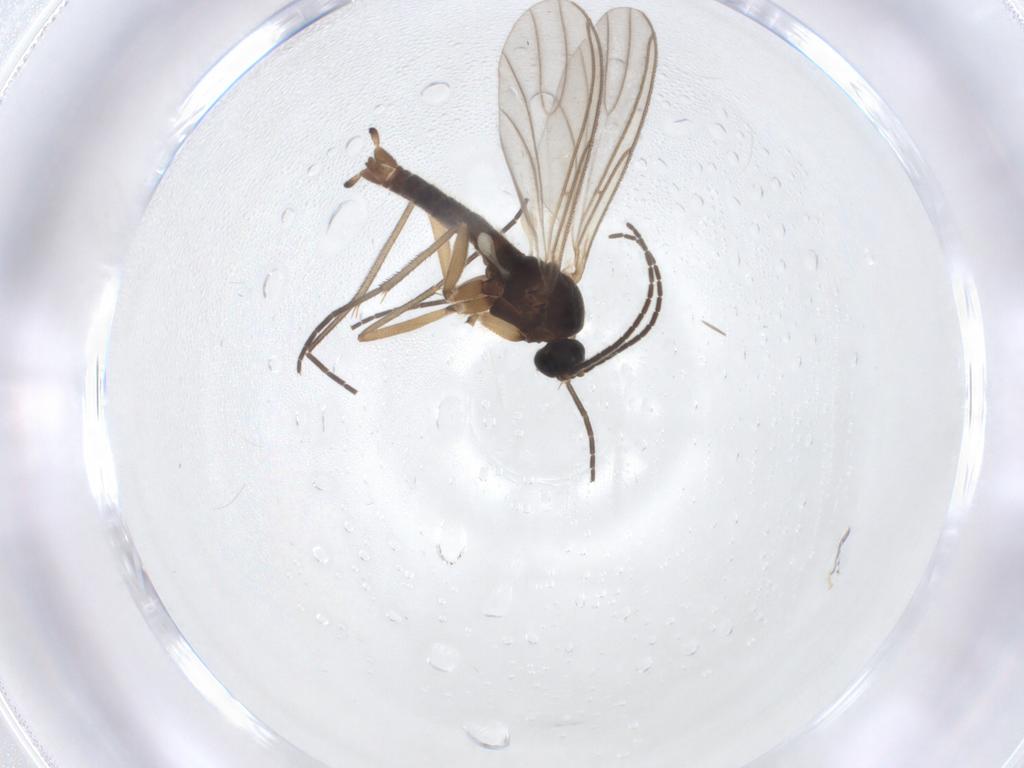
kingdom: Animalia
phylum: Arthropoda
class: Insecta
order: Diptera
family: Sciaridae
